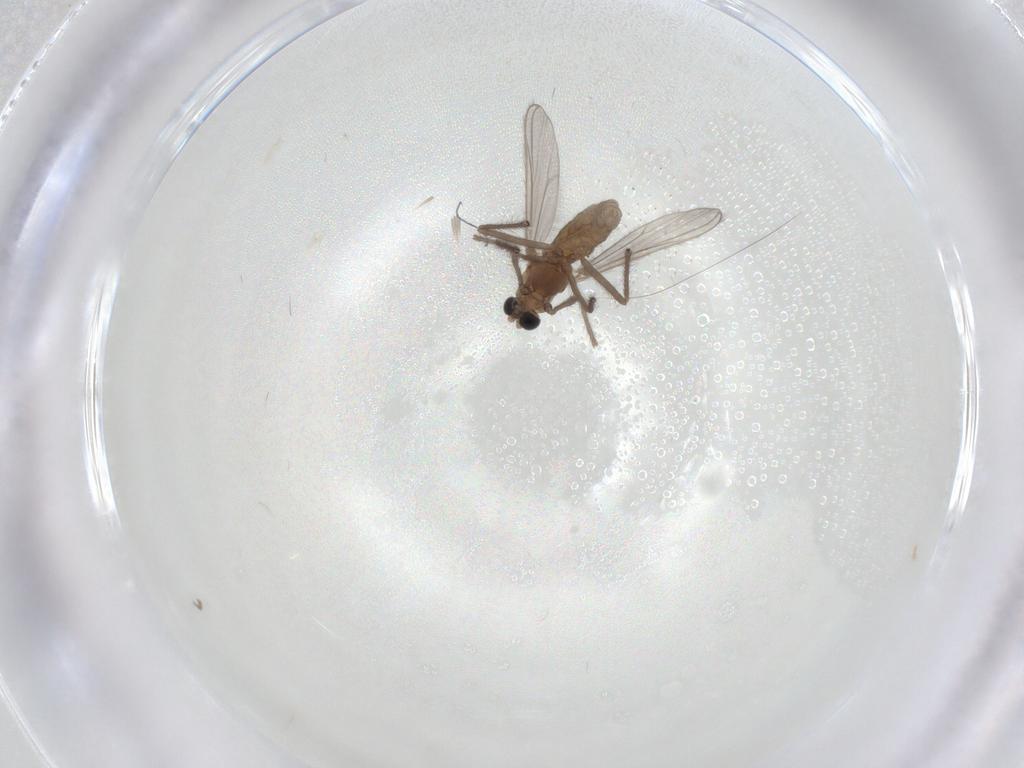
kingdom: Animalia
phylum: Arthropoda
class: Insecta
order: Diptera
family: Chironomidae
